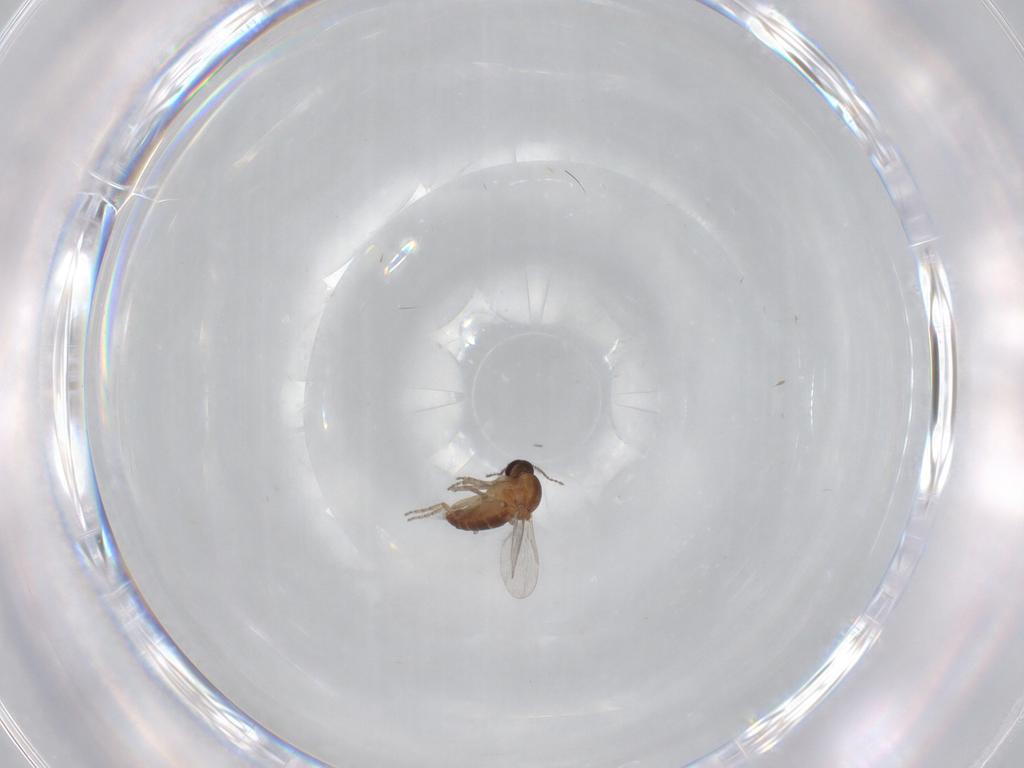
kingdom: Animalia
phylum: Arthropoda
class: Insecta
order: Diptera
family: Ceratopogonidae
